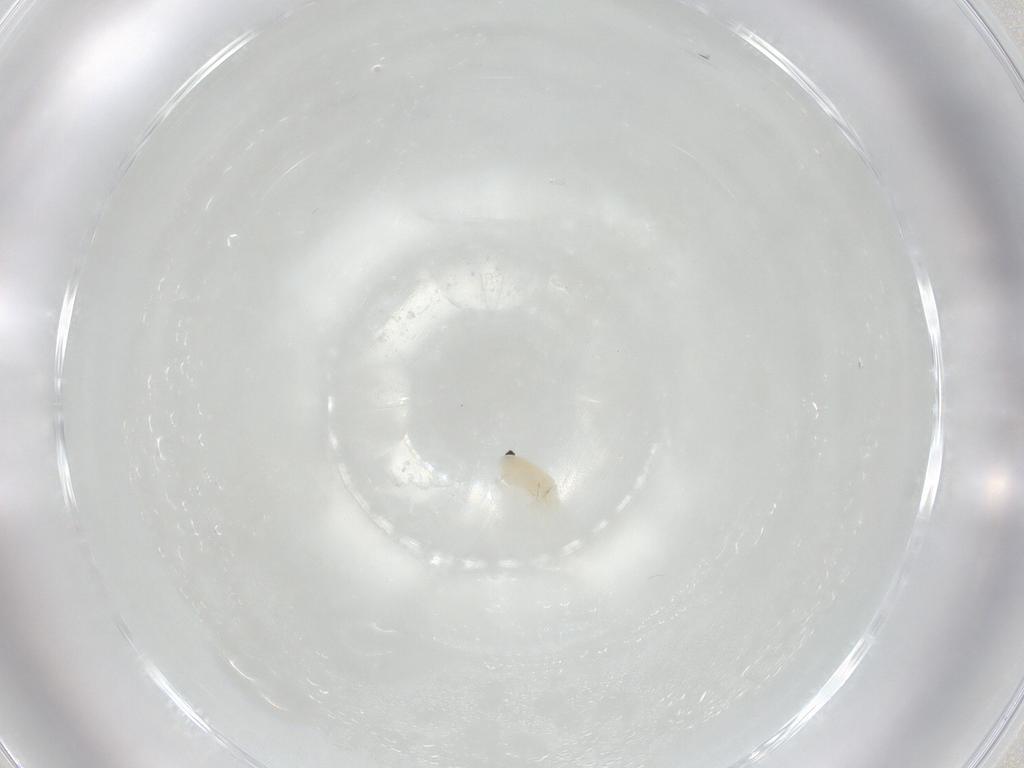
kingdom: Animalia
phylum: Arthropoda
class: Arachnida
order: Trombidiformes
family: Rhagidiidae
